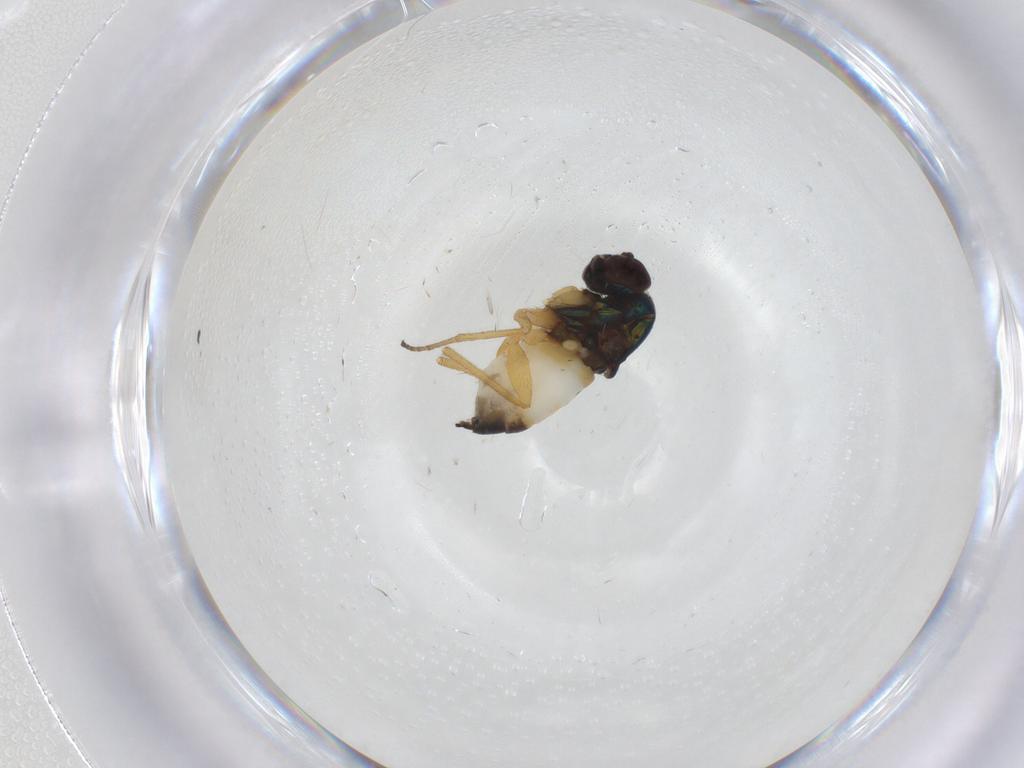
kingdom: Animalia
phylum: Arthropoda
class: Insecta
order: Diptera
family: Dolichopodidae
